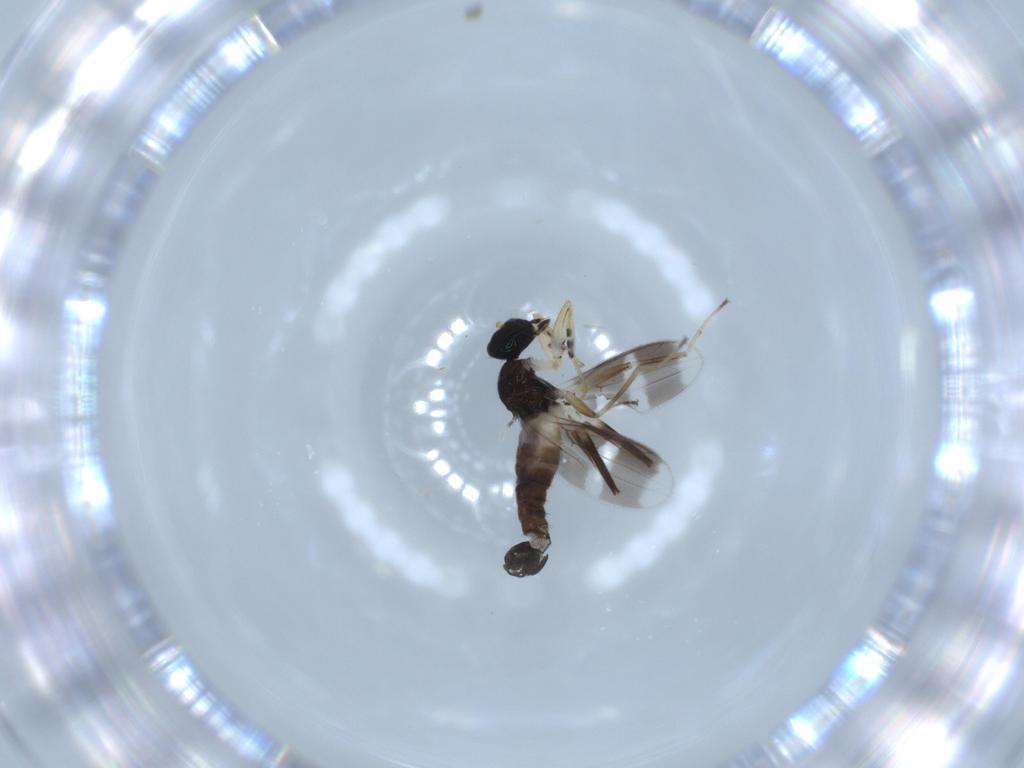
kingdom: Animalia
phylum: Arthropoda
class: Insecta
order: Diptera
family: Hybotidae
